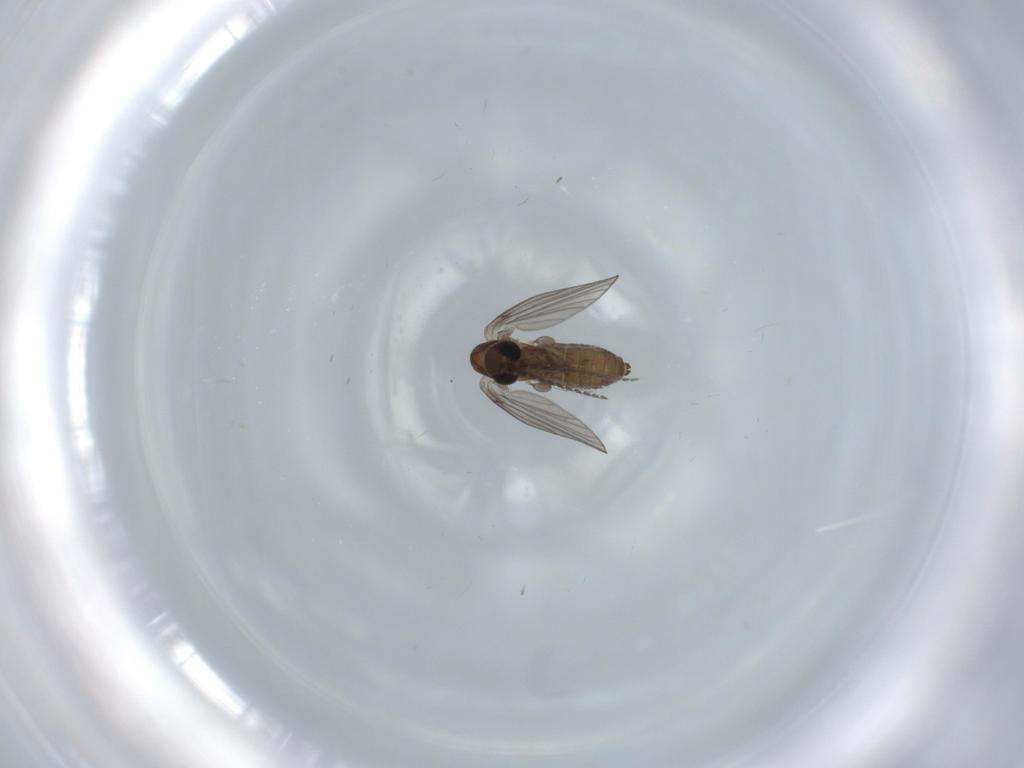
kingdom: Animalia
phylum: Arthropoda
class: Insecta
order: Diptera
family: Psychodidae
